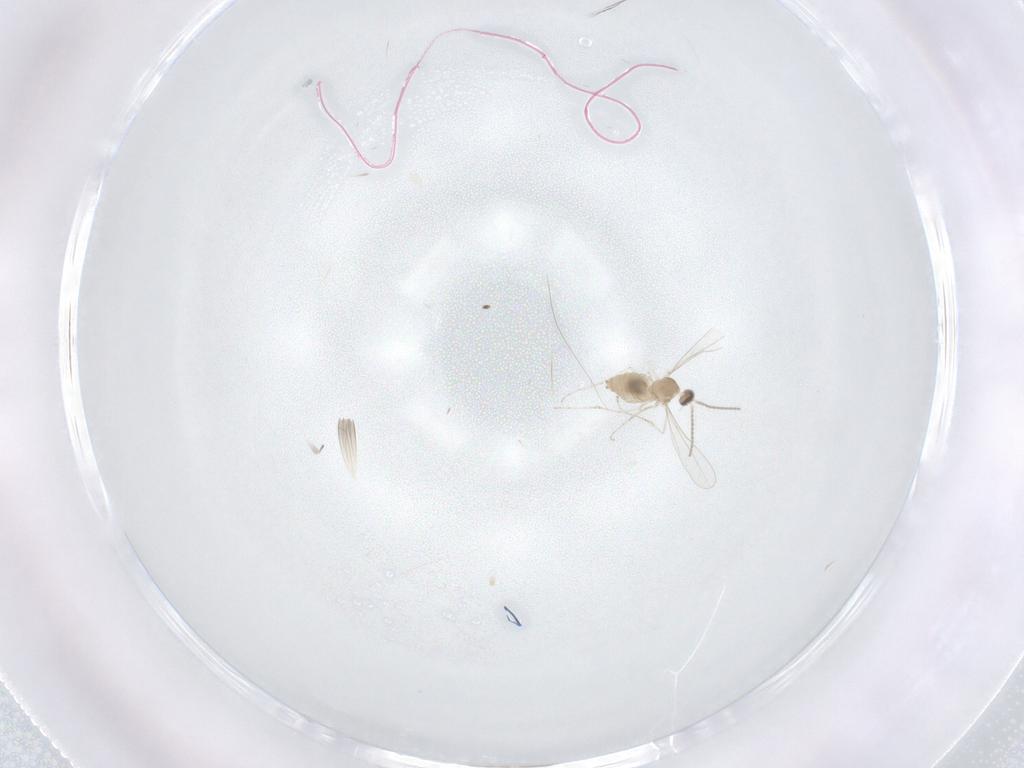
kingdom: Animalia
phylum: Arthropoda
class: Insecta
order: Diptera
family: Cecidomyiidae
